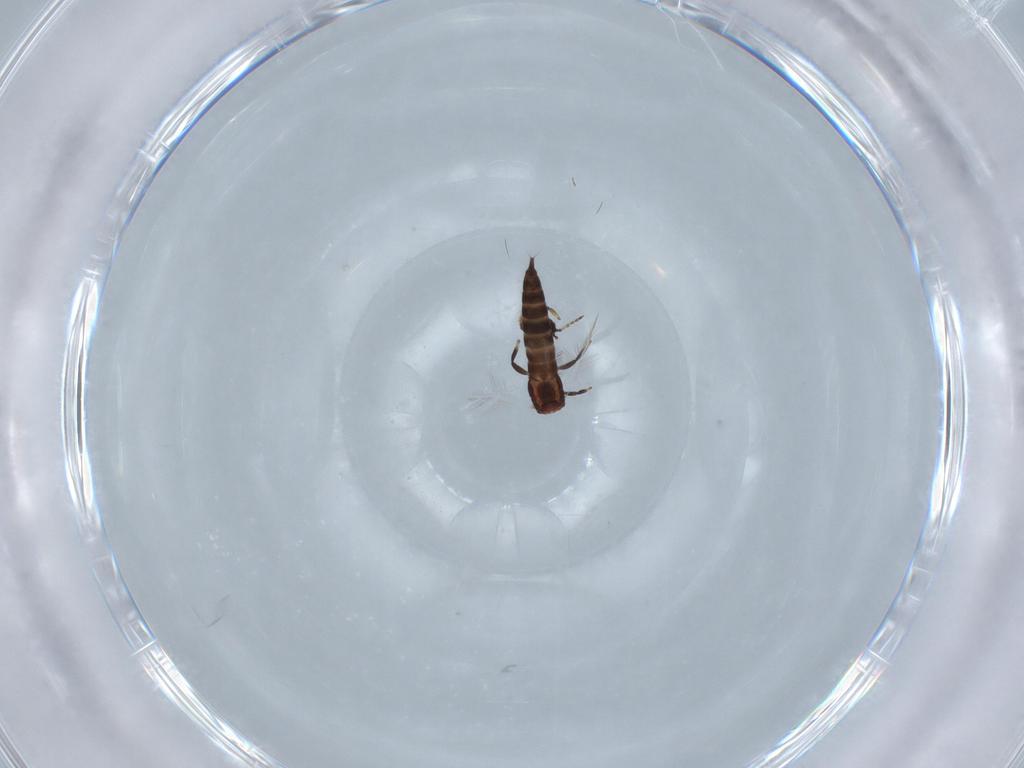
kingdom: Animalia
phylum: Arthropoda
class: Insecta
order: Thysanoptera
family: Phlaeothripidae
